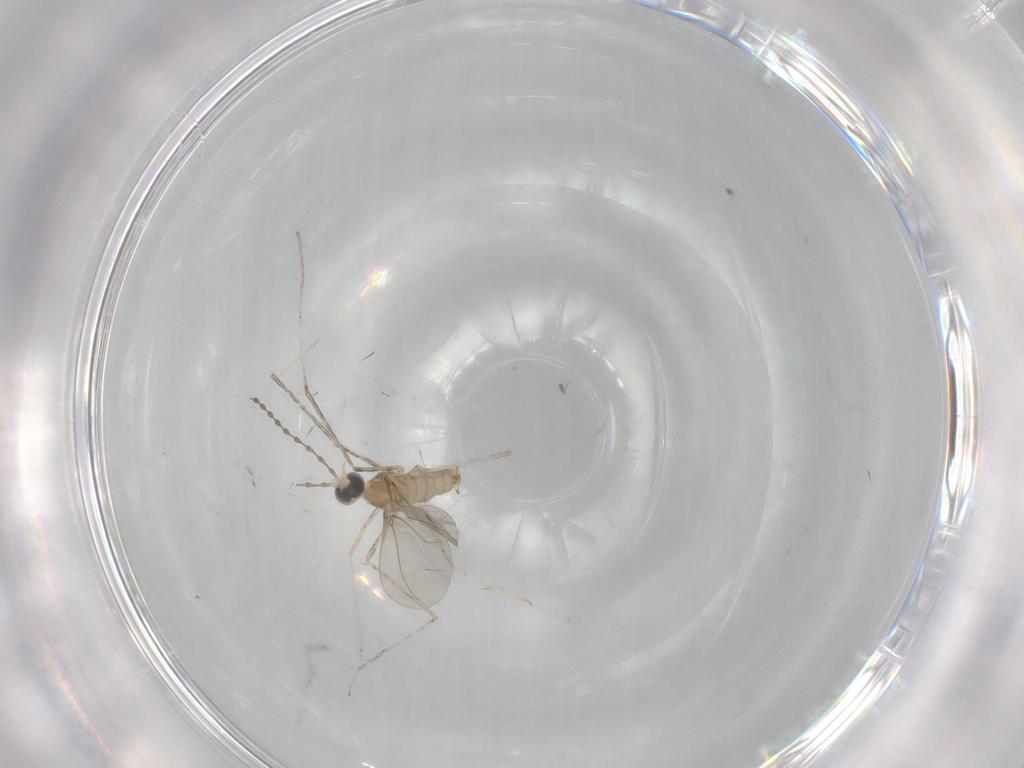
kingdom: Animalia
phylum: Arthropoda
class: Insecta
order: Diptera
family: Cecidomyiidae
